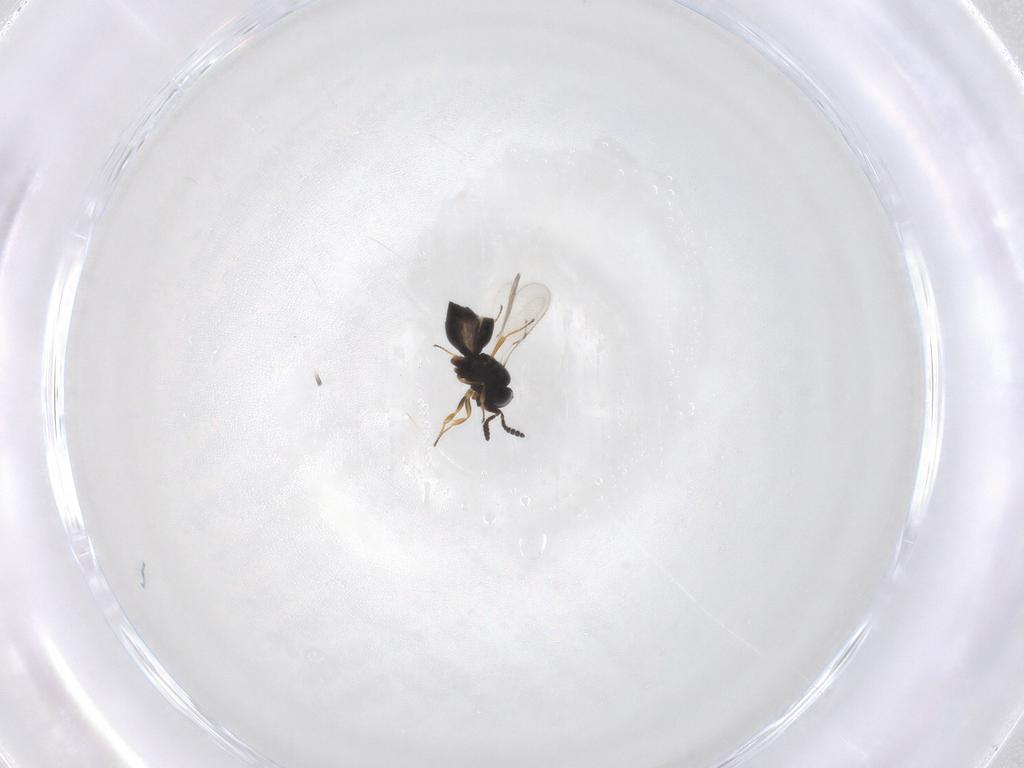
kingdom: Animalia
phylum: Arthropoda
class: Insecta
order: Hymenoptera
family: Scelionidae
